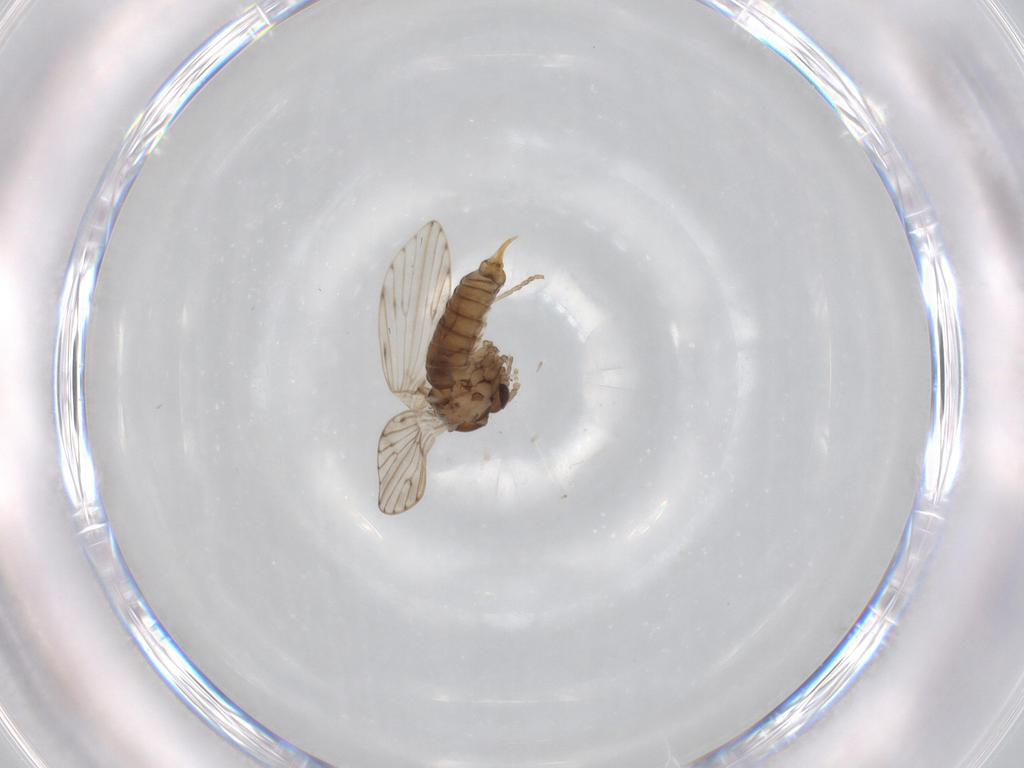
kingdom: Animalia
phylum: Arthropoda
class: Insecta
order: Diptera
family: Psychodidae
